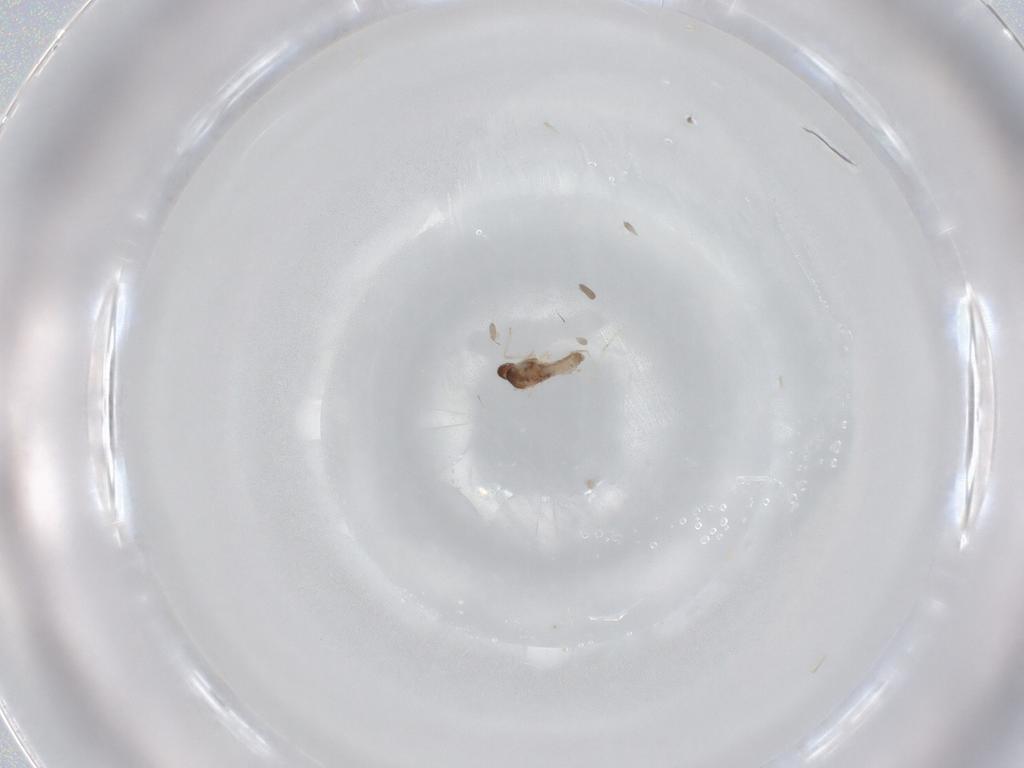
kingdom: Animalia
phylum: Arthropoda
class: Insecta
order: Diptera
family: Cecidomyiidae
